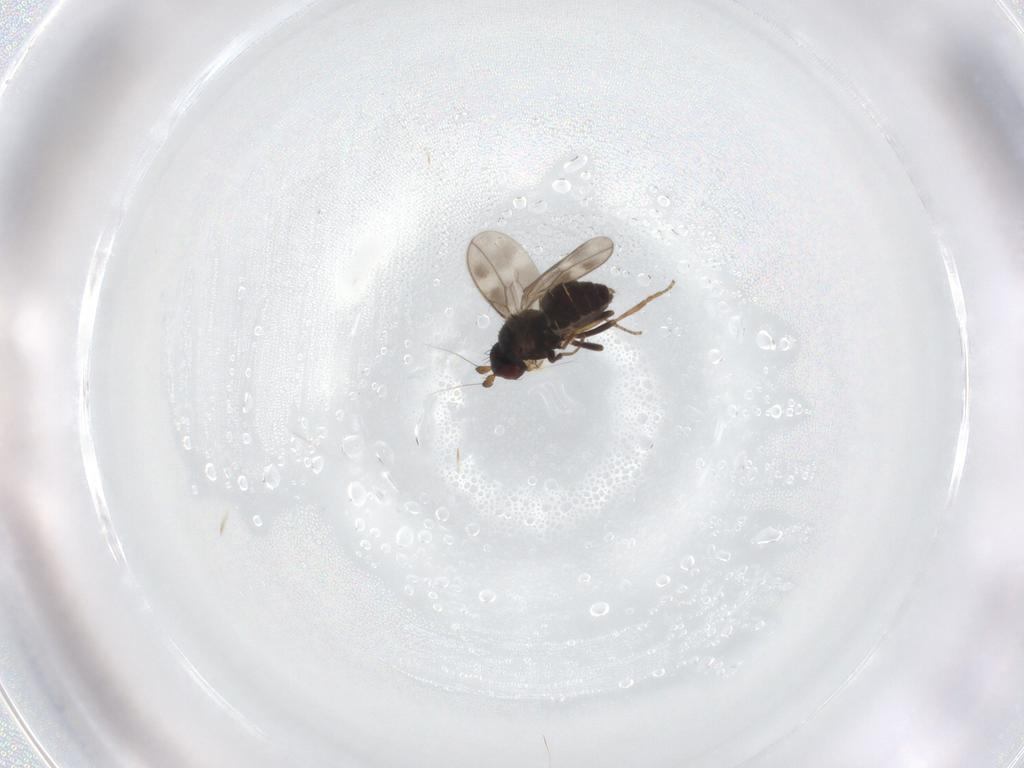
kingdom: Animalia
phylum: Arthropoda
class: Insecta
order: Diptera
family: Sphaeroceridae
